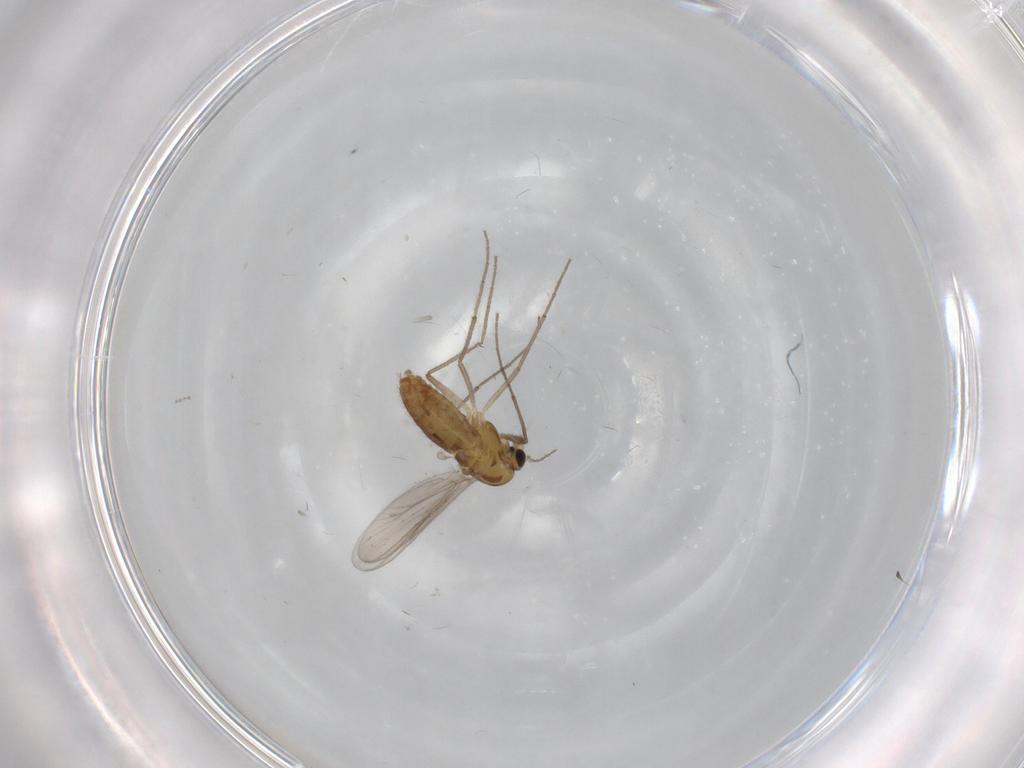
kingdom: Animalia
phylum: Arthropoda
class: Insecta
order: Diptera
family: Chironomidae
